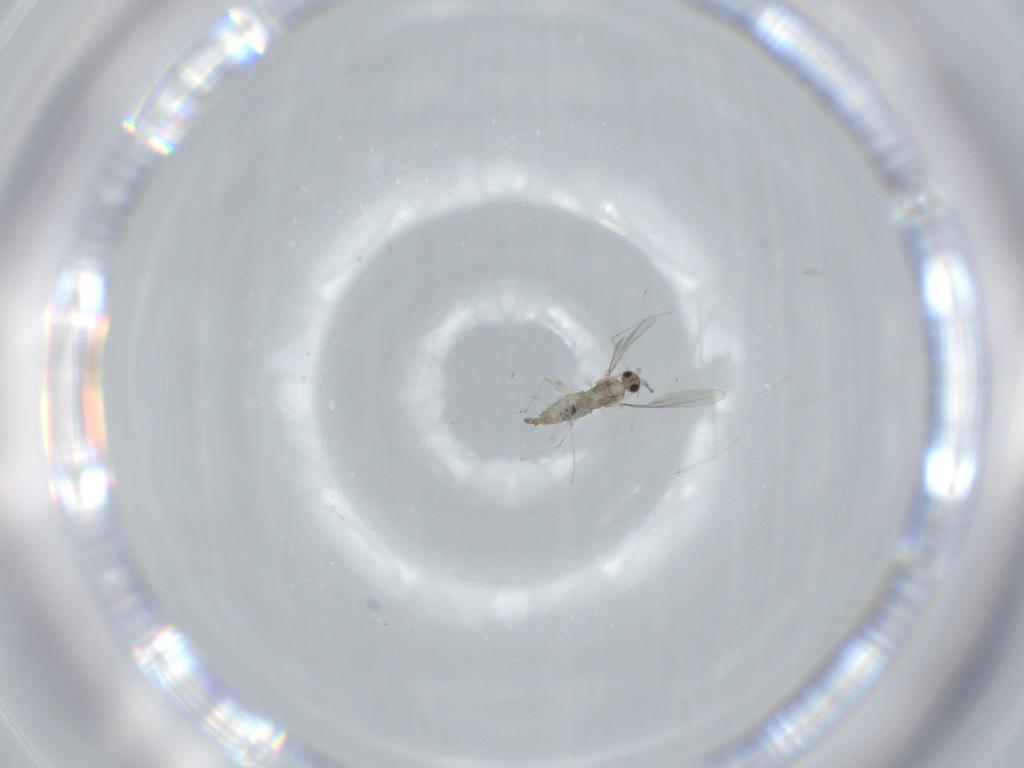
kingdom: Animalia
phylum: Arthropoda
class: Insecta
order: Diptera
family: Cecidomyiidae
